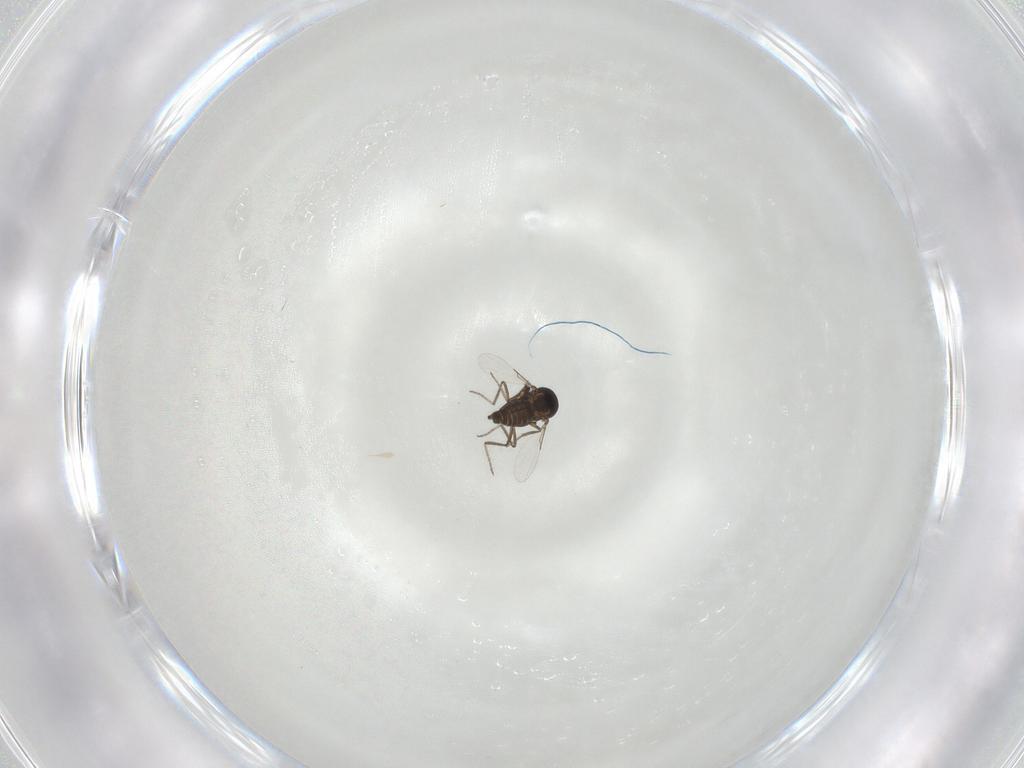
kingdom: Animalia
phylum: Arthropoda
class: Insecta
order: Diptera
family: Ceratopogonidae
